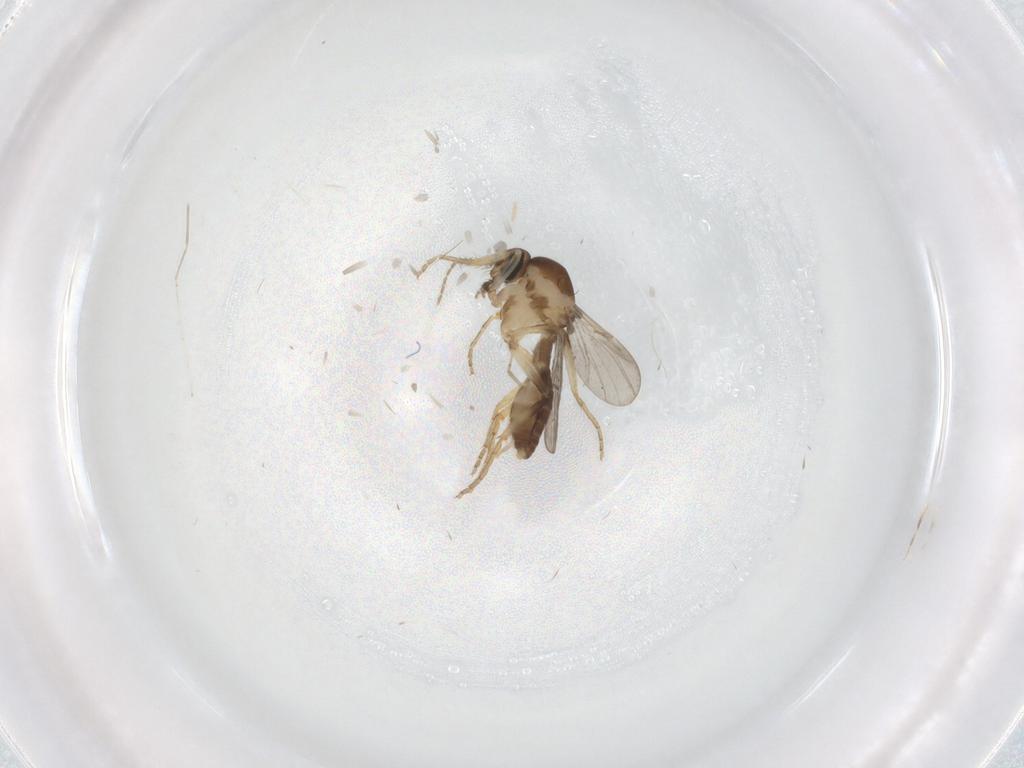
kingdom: Animalia
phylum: Arthropoda
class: Insecta
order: Diptera
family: Ceratopogonidae
